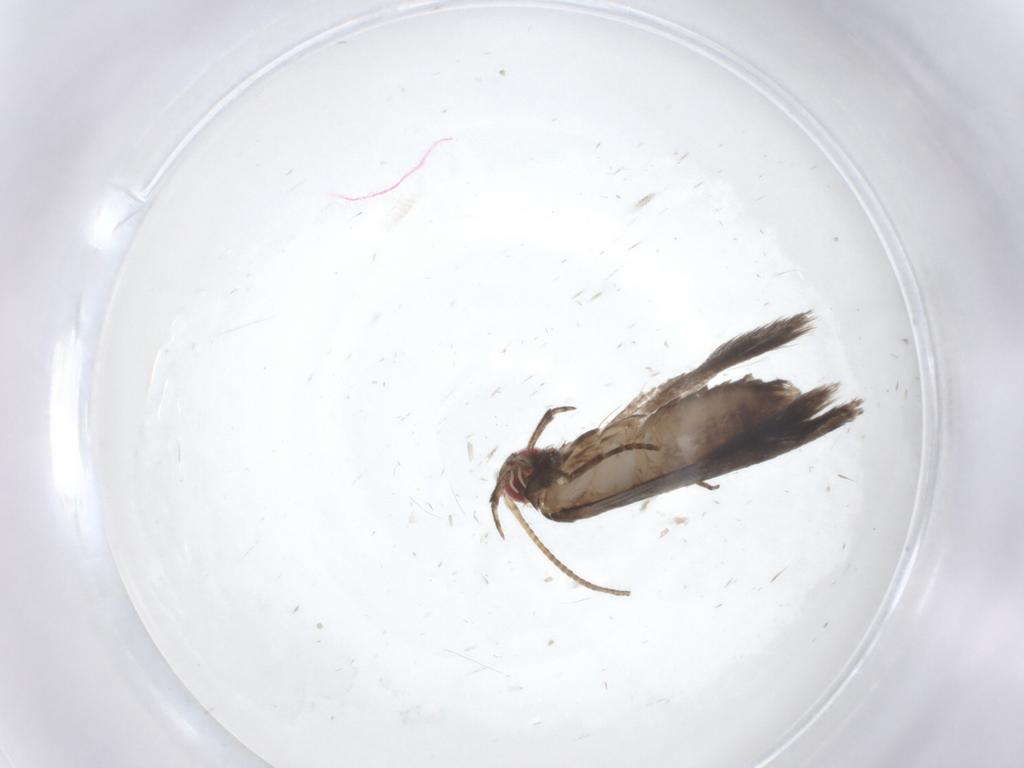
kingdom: Animalia
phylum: Arthropoda
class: Insecta
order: Lepidoptera
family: Gelechiidae
